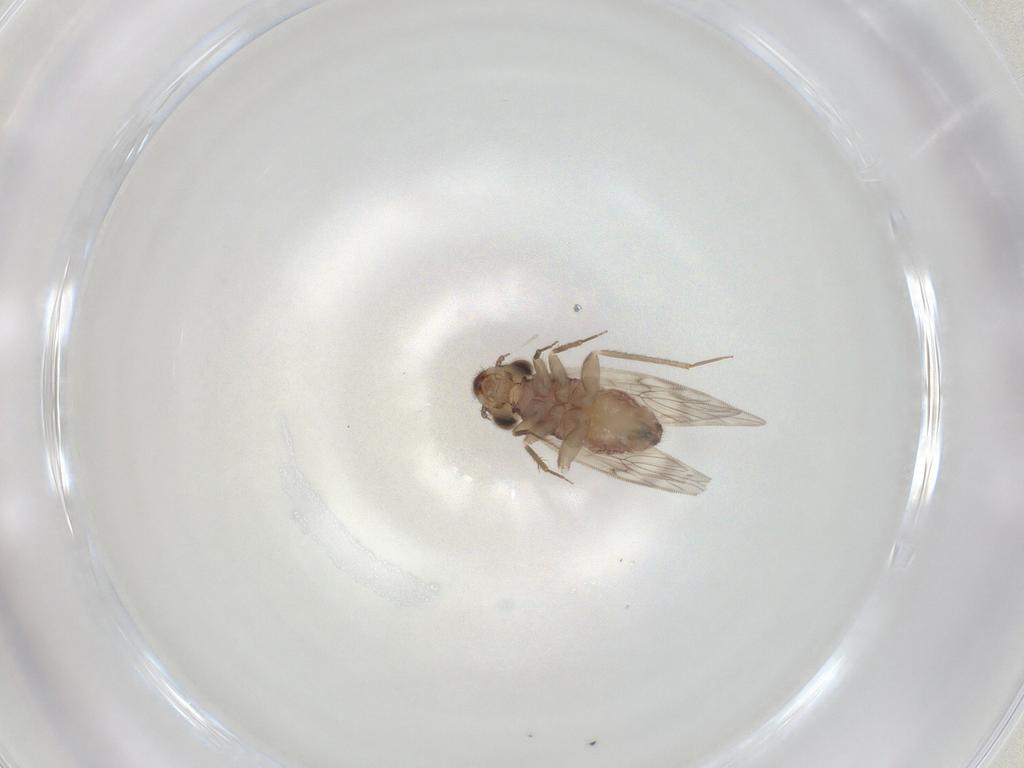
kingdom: Animalia
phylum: Arthropoda
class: Insecta
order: Psocodea
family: Lepidopsocidae
